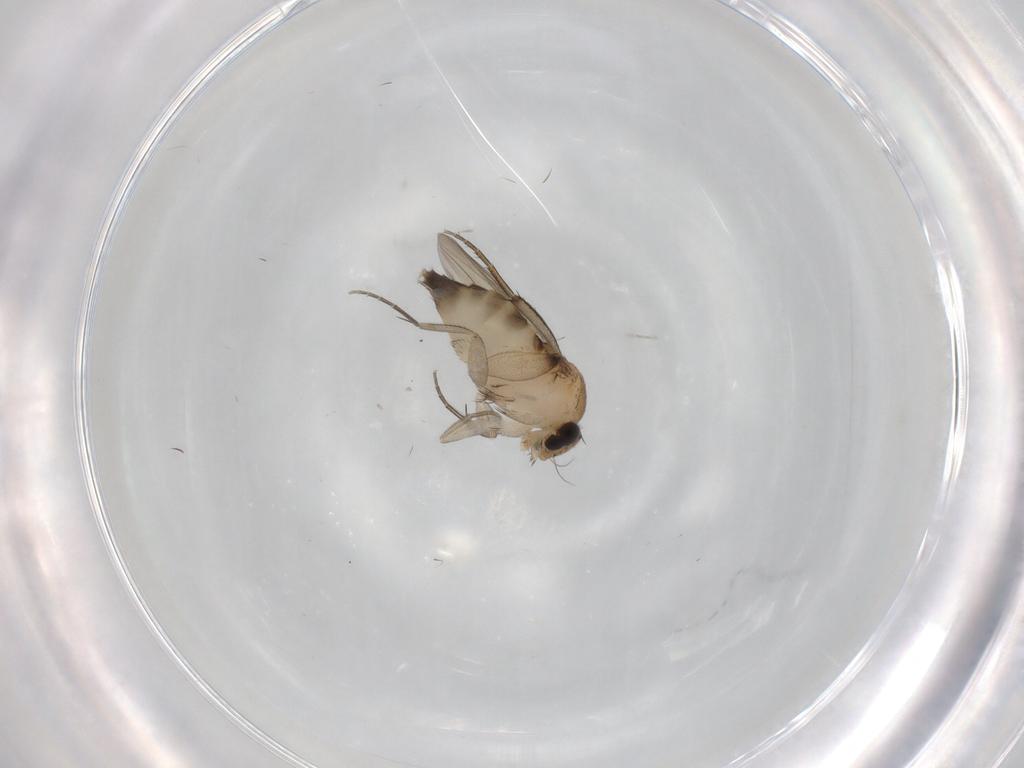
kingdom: Animalia
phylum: Arthropoda
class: Insecta
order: Diptera
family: Phoridae
